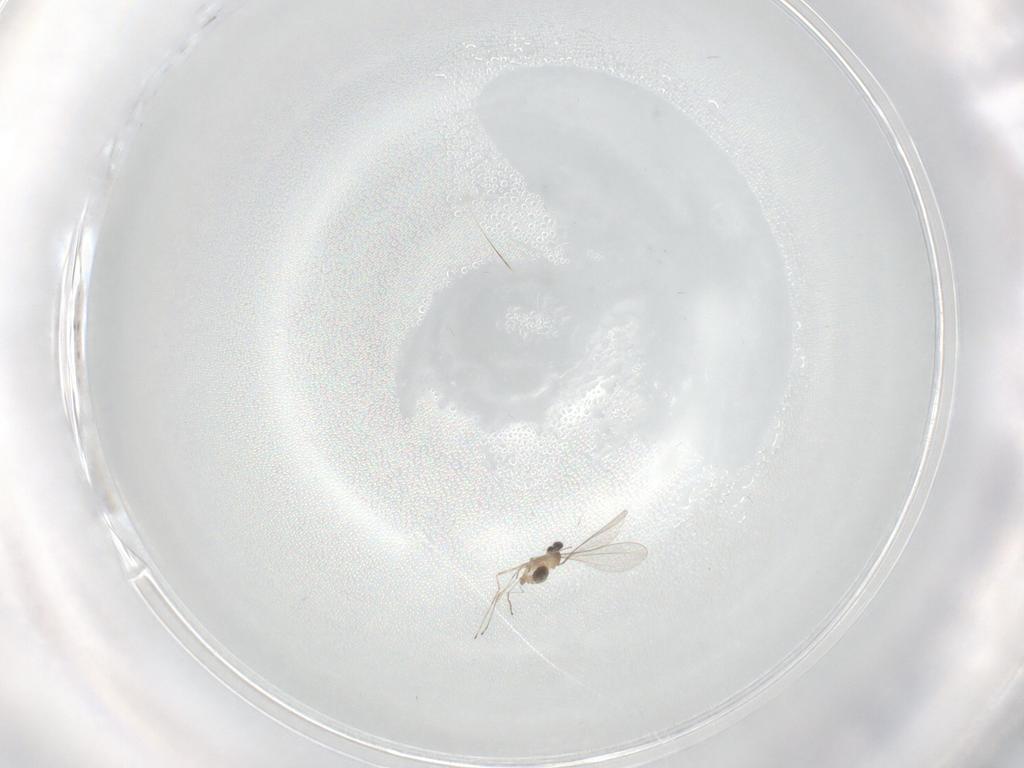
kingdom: Animalia
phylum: Arthropoda
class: Insecta
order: Diptera
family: Cecidomyiidae
